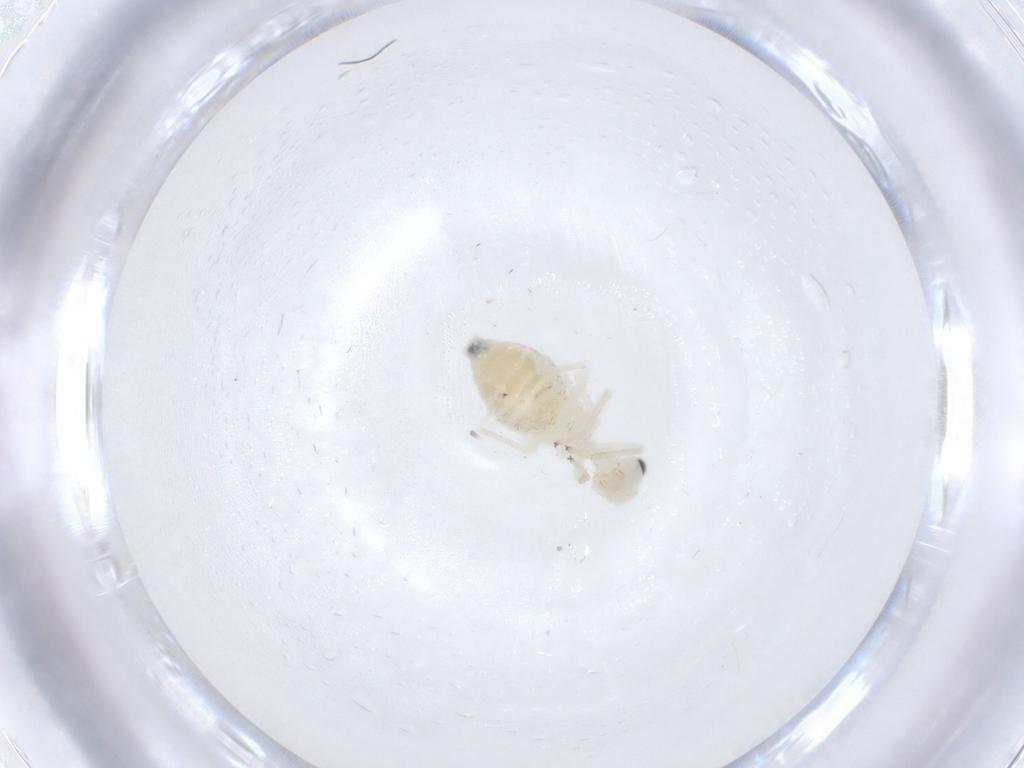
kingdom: Animalia
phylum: Arthropoda
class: Insecta
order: Psocodea
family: Caeciliusidae
